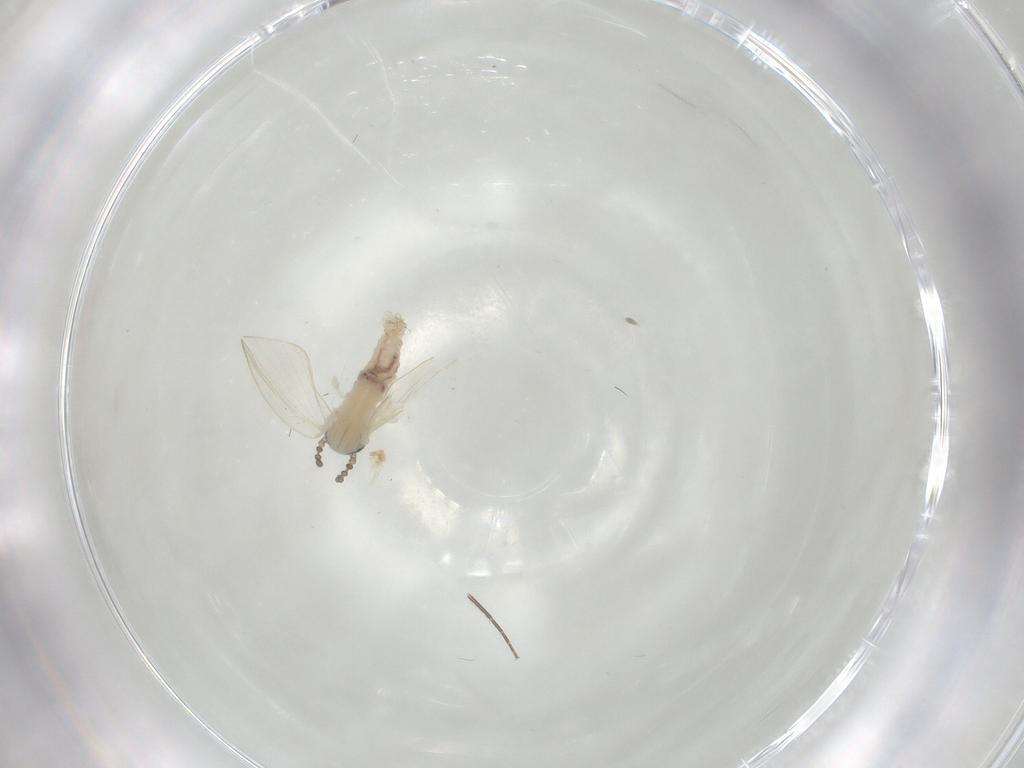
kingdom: Animalia
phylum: Arthropoda
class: Insecta
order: Diptera
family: Psychodidae
